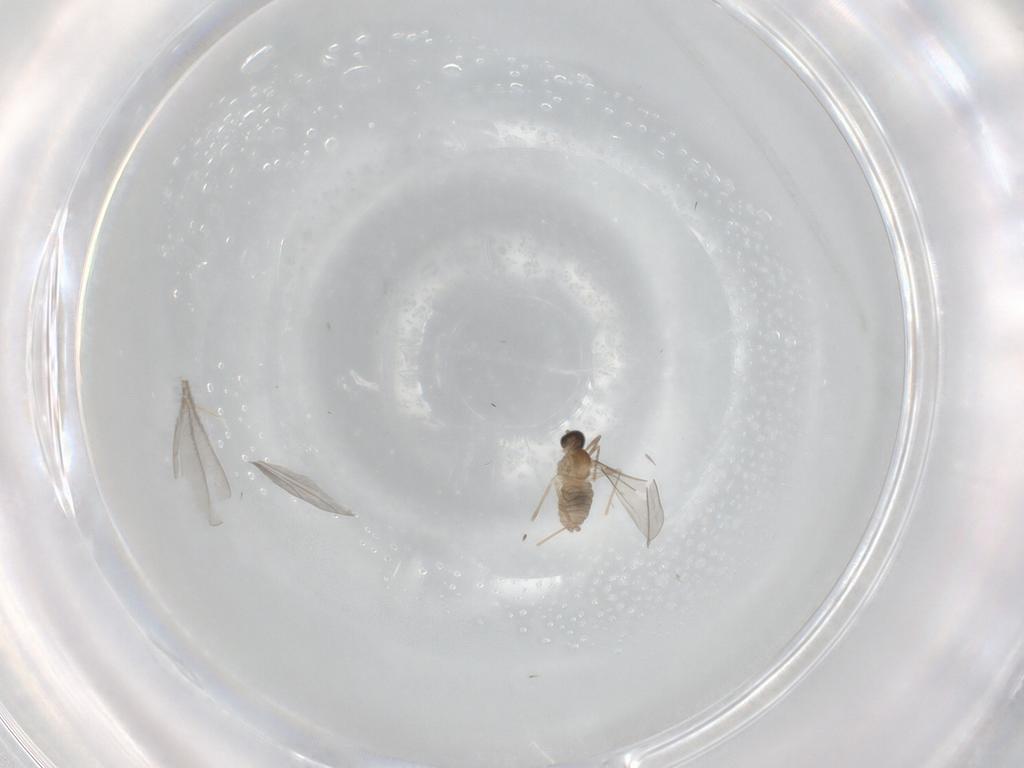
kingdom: Animalia
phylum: Arthropoda
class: Insecta
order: Diptera
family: Cecidomyiidae
